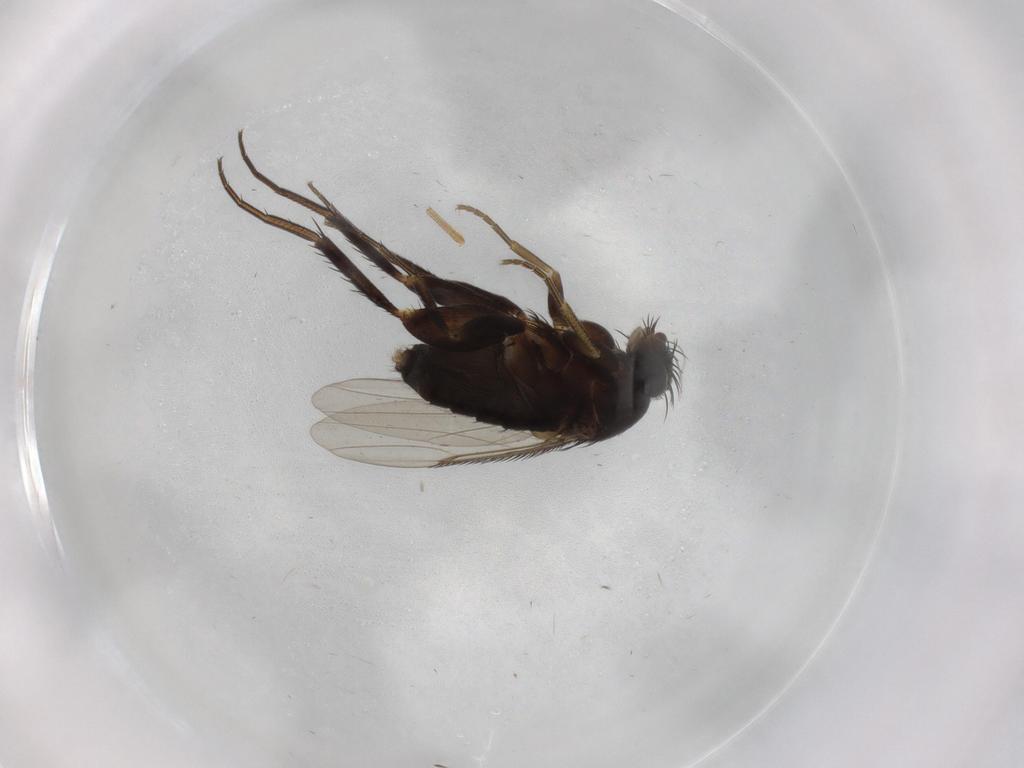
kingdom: Animalia
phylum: Arthropoda
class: Insecta
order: Diptera
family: Phoridae
